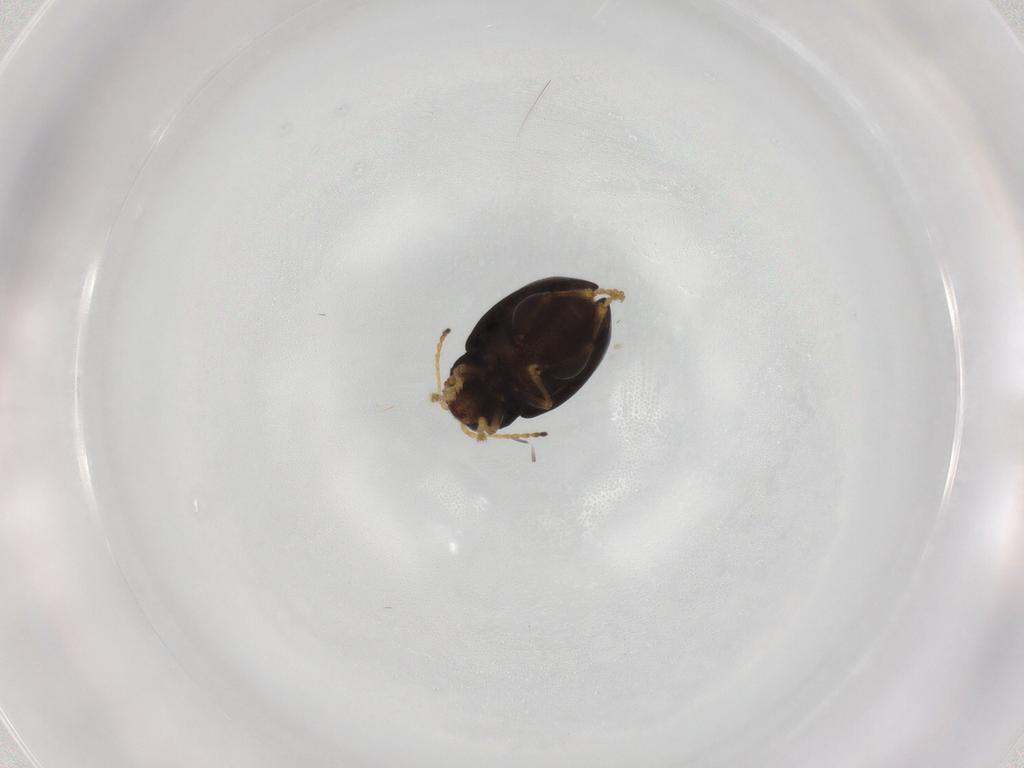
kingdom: Animalia
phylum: Arthropoda
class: Insecta
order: Coleoptera
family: Chrysomelidae
